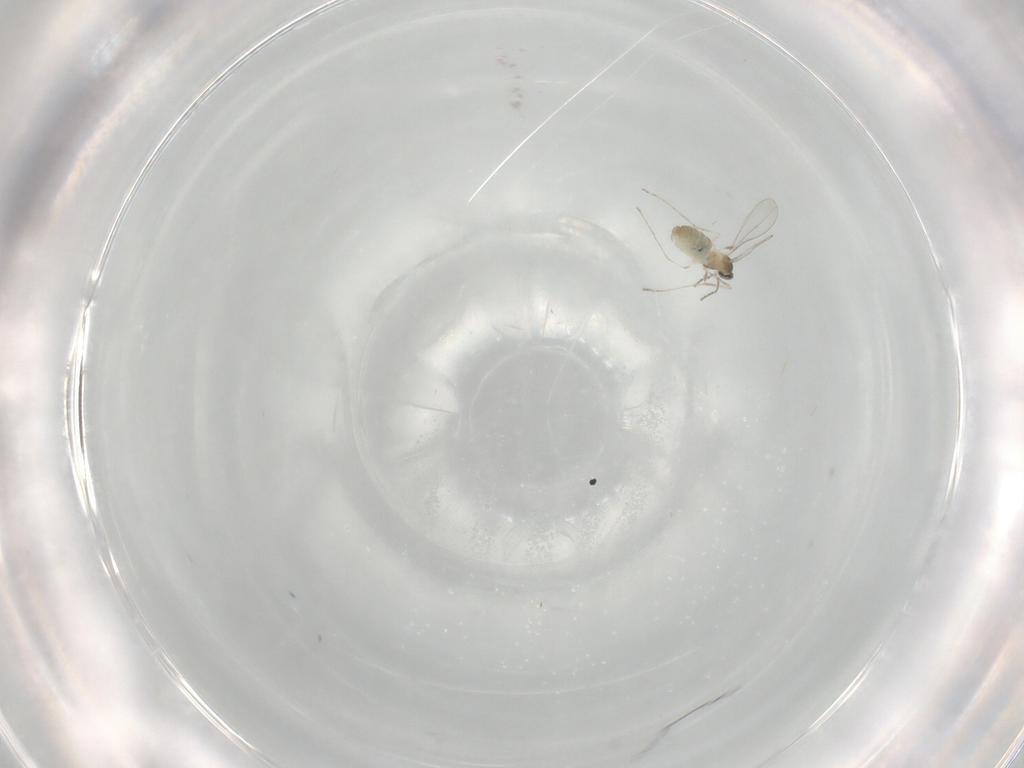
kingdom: Animalia
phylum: Arthropoda
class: Insecta
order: Diptera
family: Cecidomyiidae
